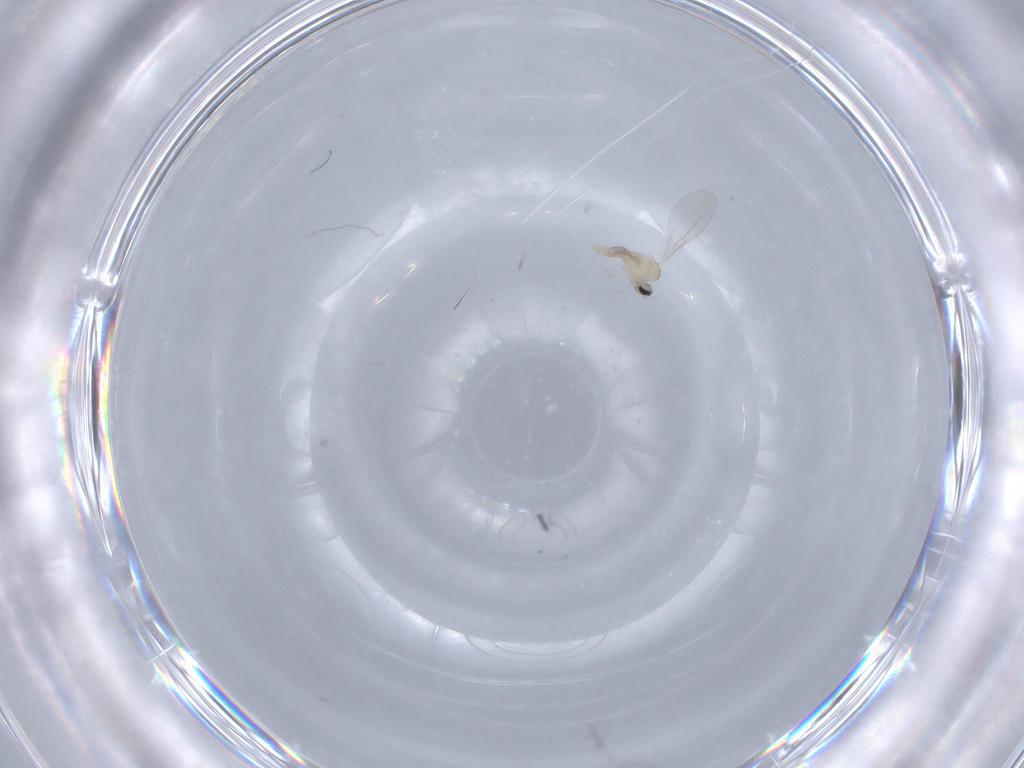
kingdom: Animalia
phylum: Arthropoda
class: Insecta
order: Diptera
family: Cecidomyiidae
